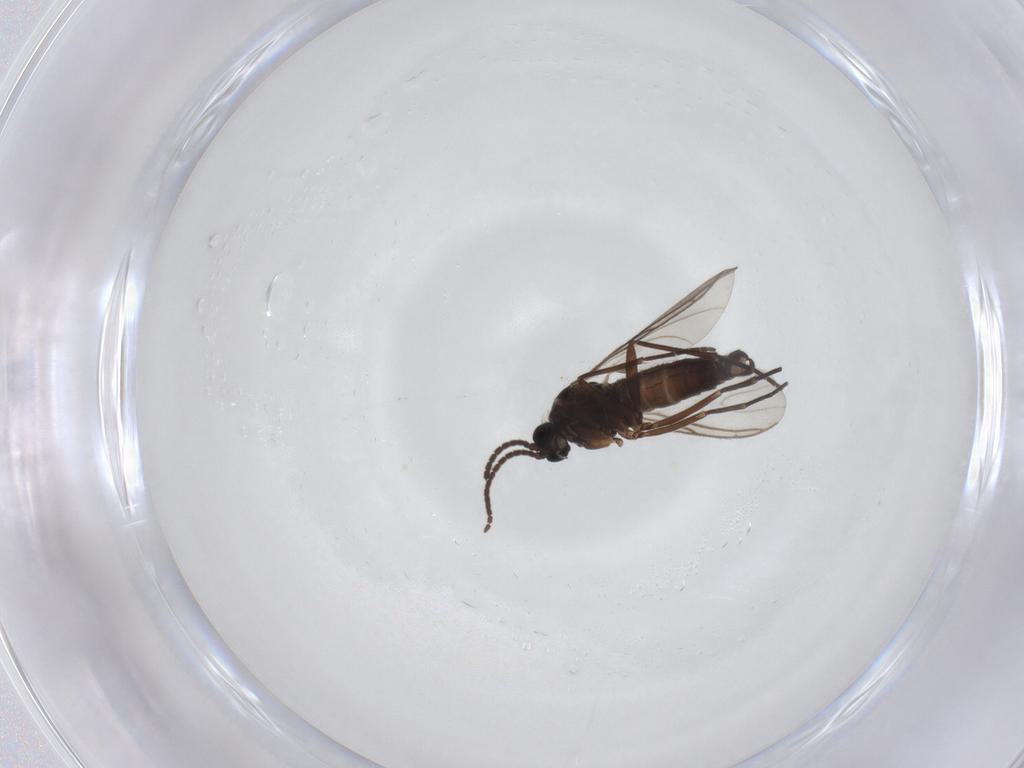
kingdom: Animalia
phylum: Arthropoda
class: Insecta
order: Diptera
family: Sciaridae
